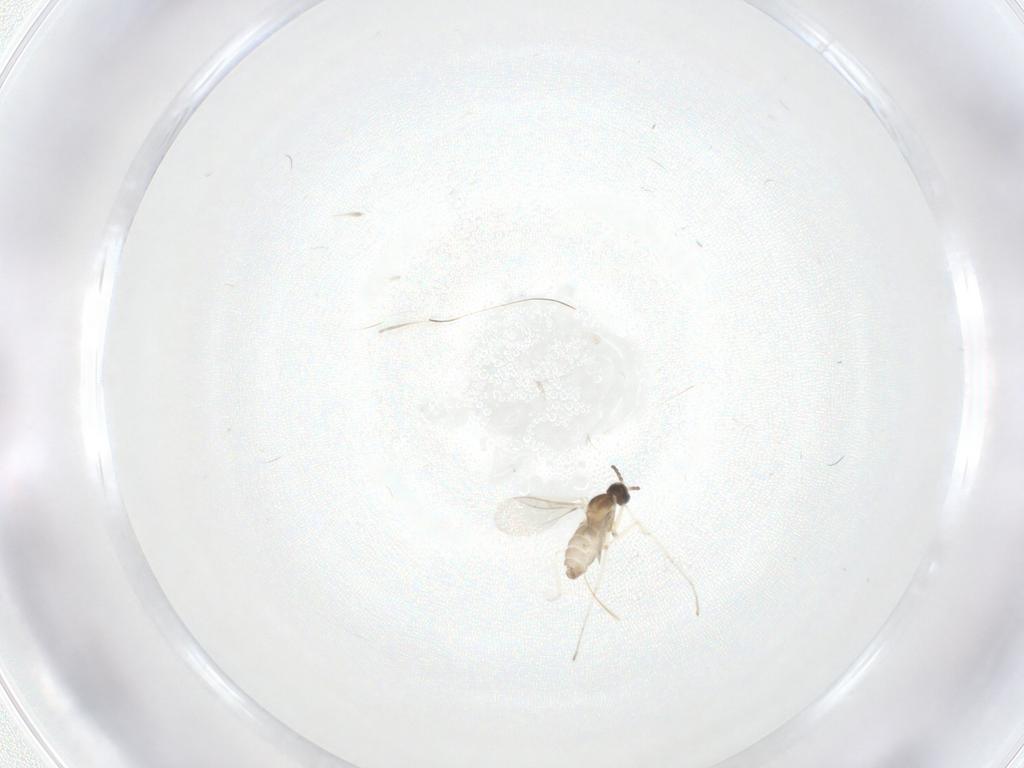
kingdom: Animalia
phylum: Arthropoda
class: Insecta
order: Diptera
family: Cecidomyiidae
